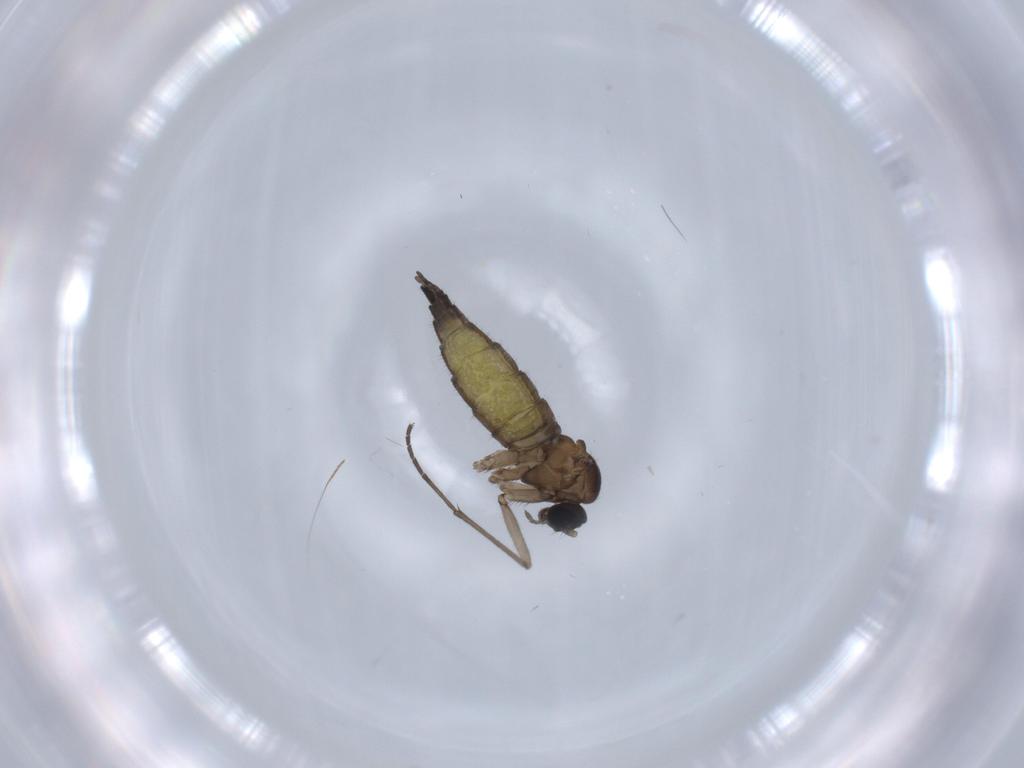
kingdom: Animalia
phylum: Arthropoda
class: Insecta
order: Diptera
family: Sciaridae
